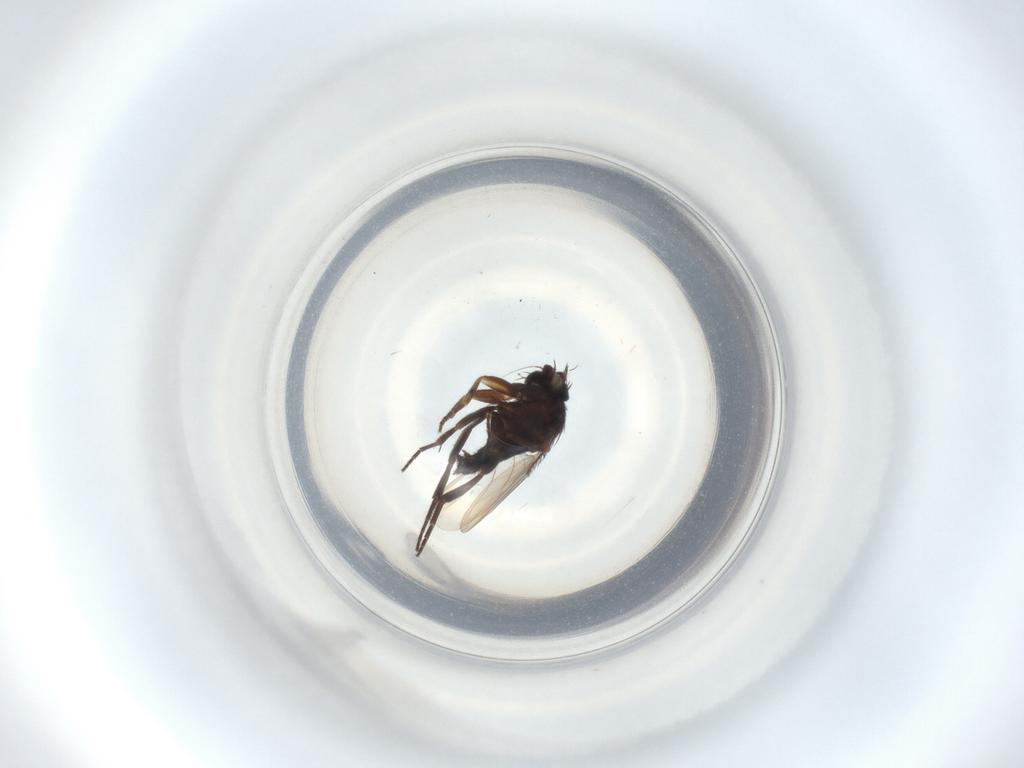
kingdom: Animalia
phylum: Arthropoda
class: Insecta
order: Diptera
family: Phoridae
